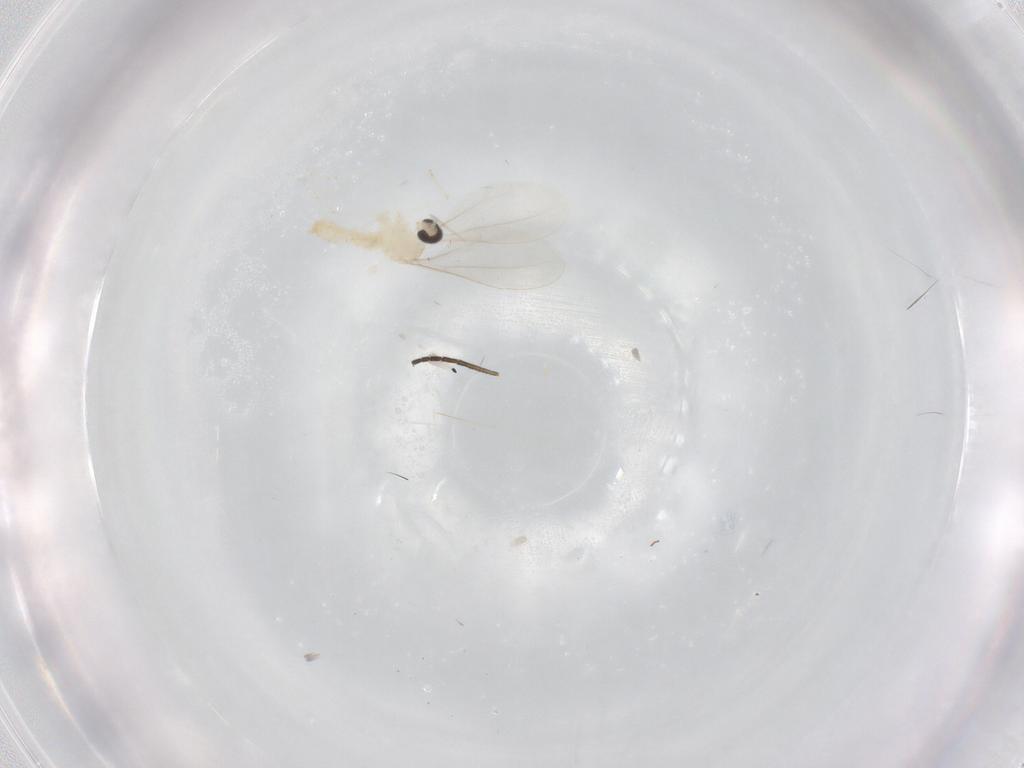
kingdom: Animalia
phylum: Arthropoda
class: Insecta
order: Diptera
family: Sciaridae
